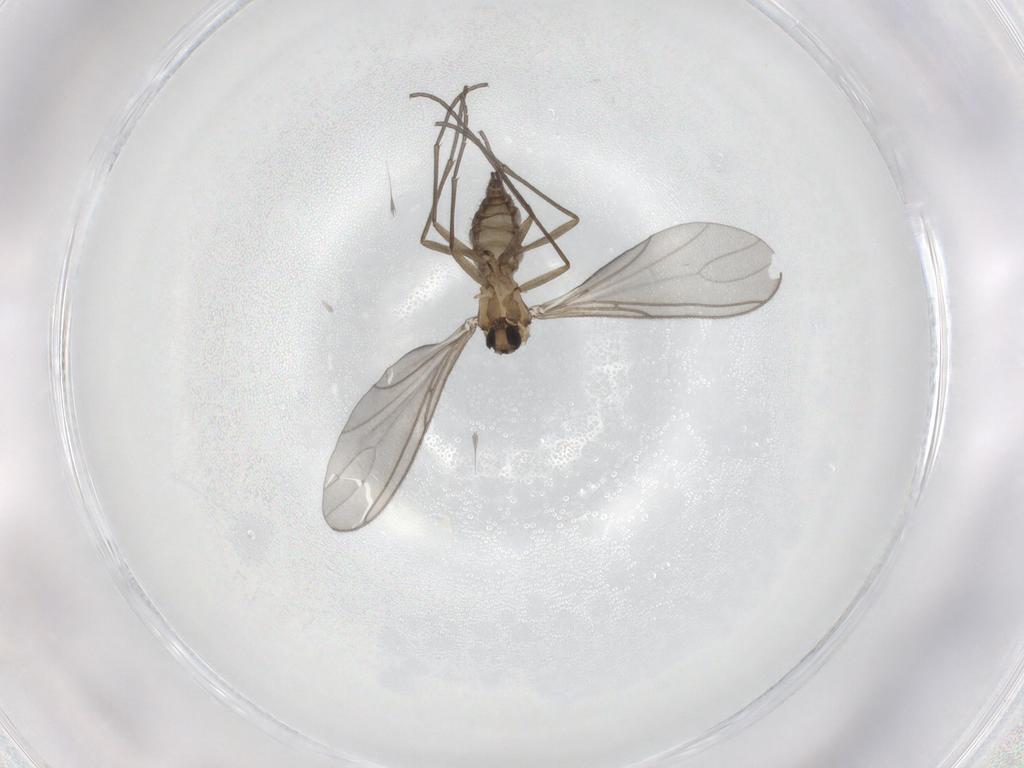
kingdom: Animalia
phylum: Arthropoda
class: Insecta
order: Diptera
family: Sciaridae
